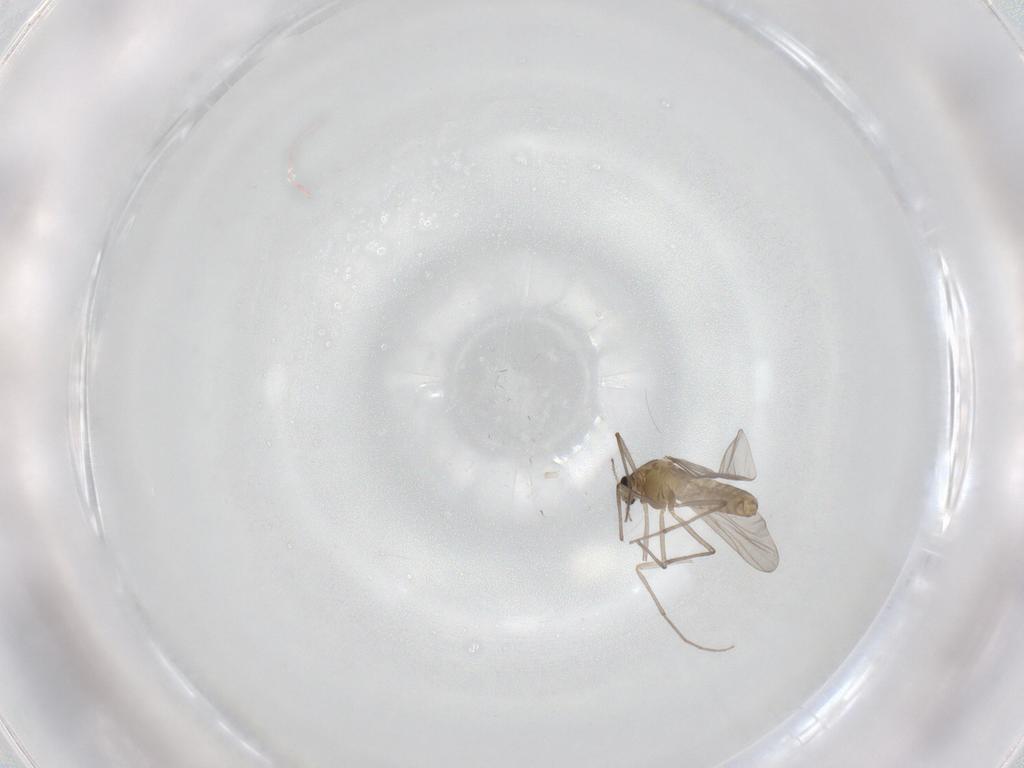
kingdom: Animalia
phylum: Arthropoda
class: Insecta
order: Diptera
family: Chironomidae
